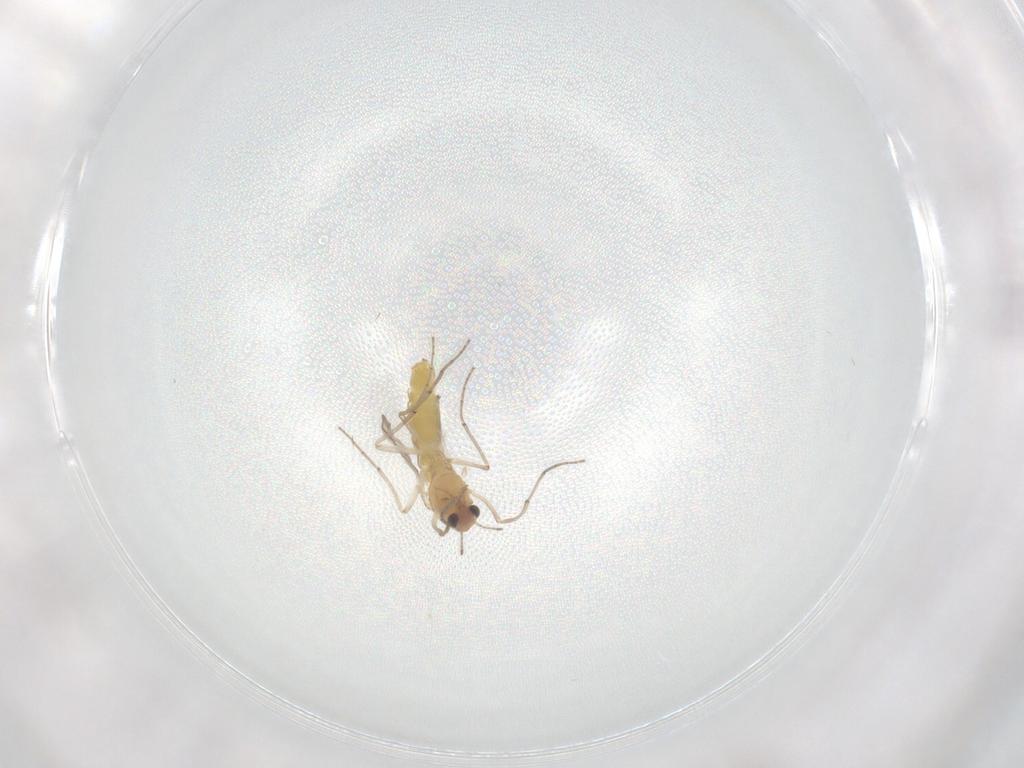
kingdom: Animalia
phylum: Arthropoda
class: Insecta
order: Diptera
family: Chironomidae
